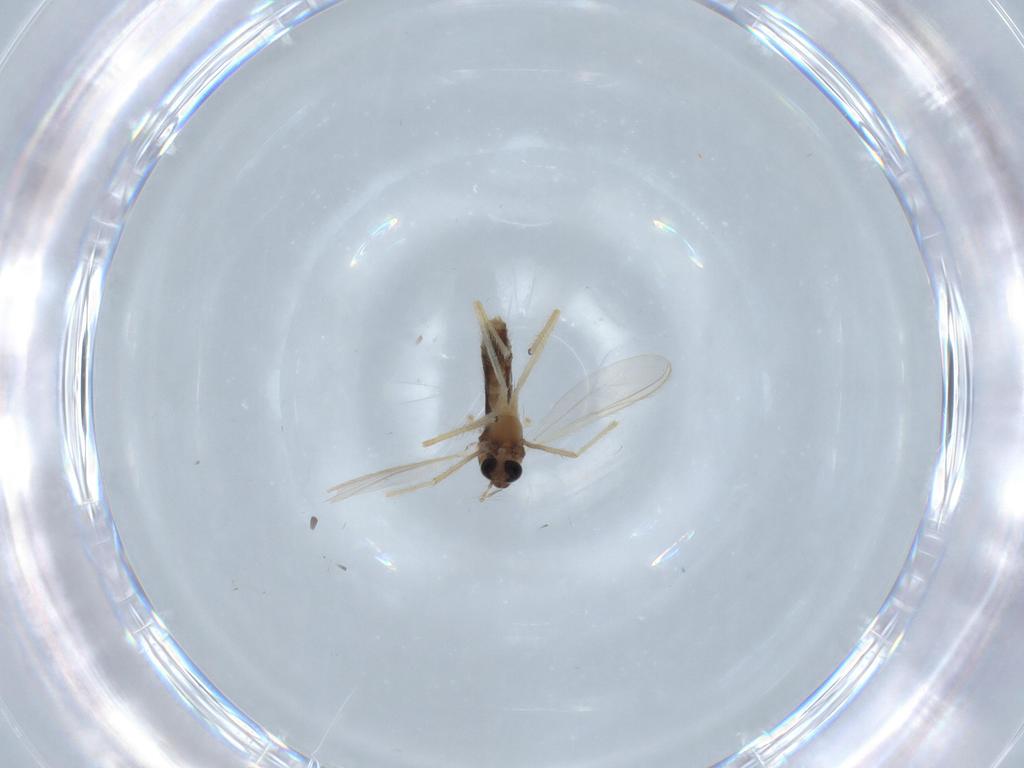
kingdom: Animalia
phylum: Arthropoda
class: Insecta
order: Diptera
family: Chironomidae
